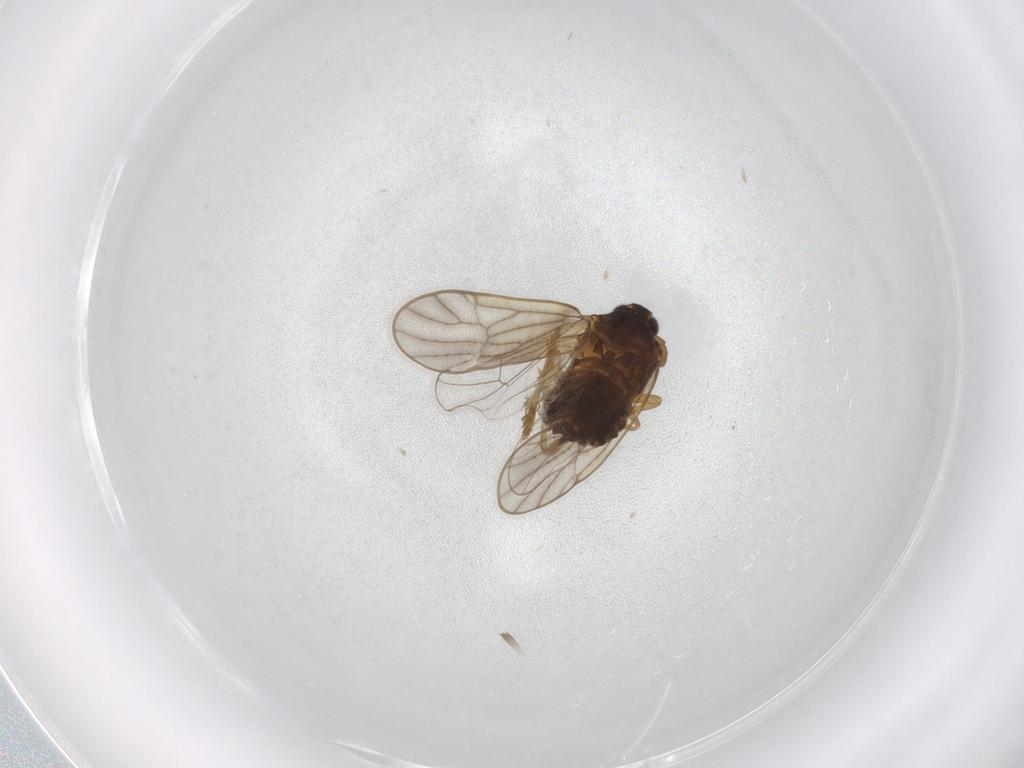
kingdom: Animalia
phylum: Arthropoda
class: Insecta
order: Hemiptera
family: Delphacidae
